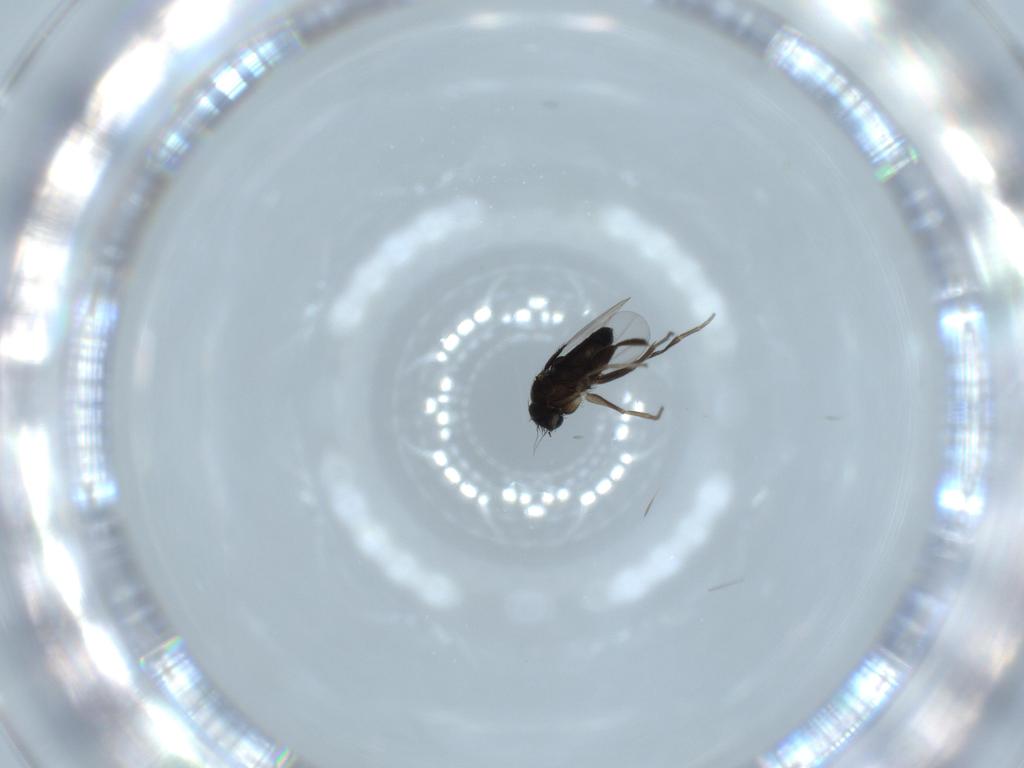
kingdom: Animalia
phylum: Arthropoda
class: Insecta
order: Diptera
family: Phoridae
